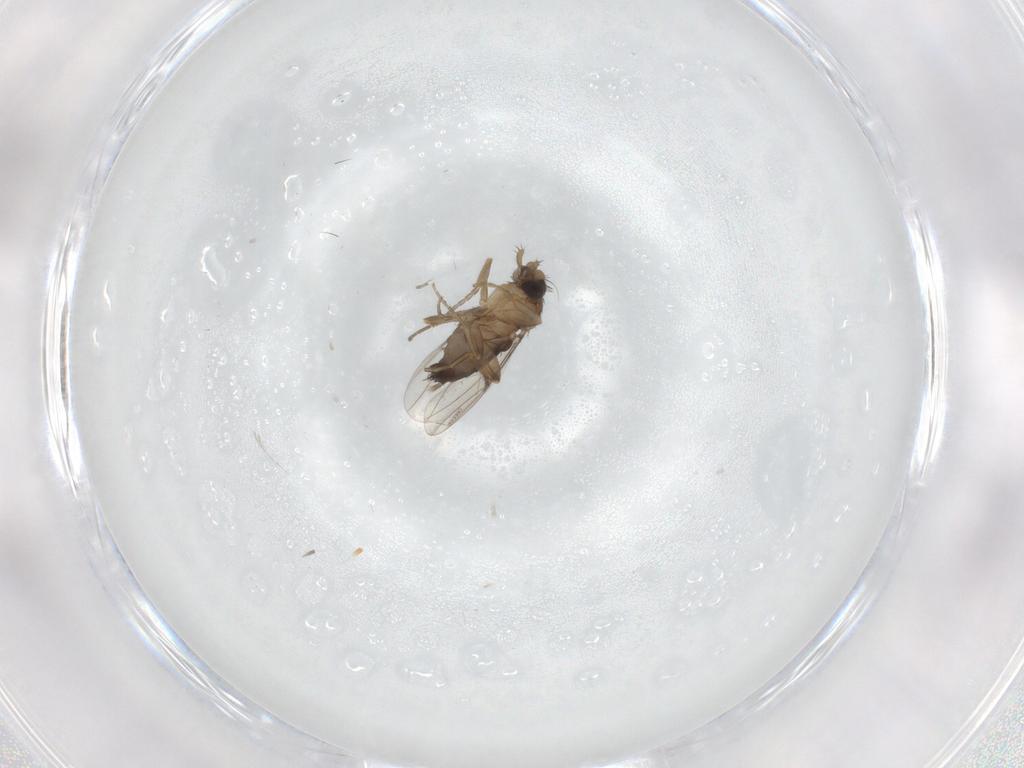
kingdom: Animalia
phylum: Arthropoda
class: Insecta
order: Diptera
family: Sciaridae
